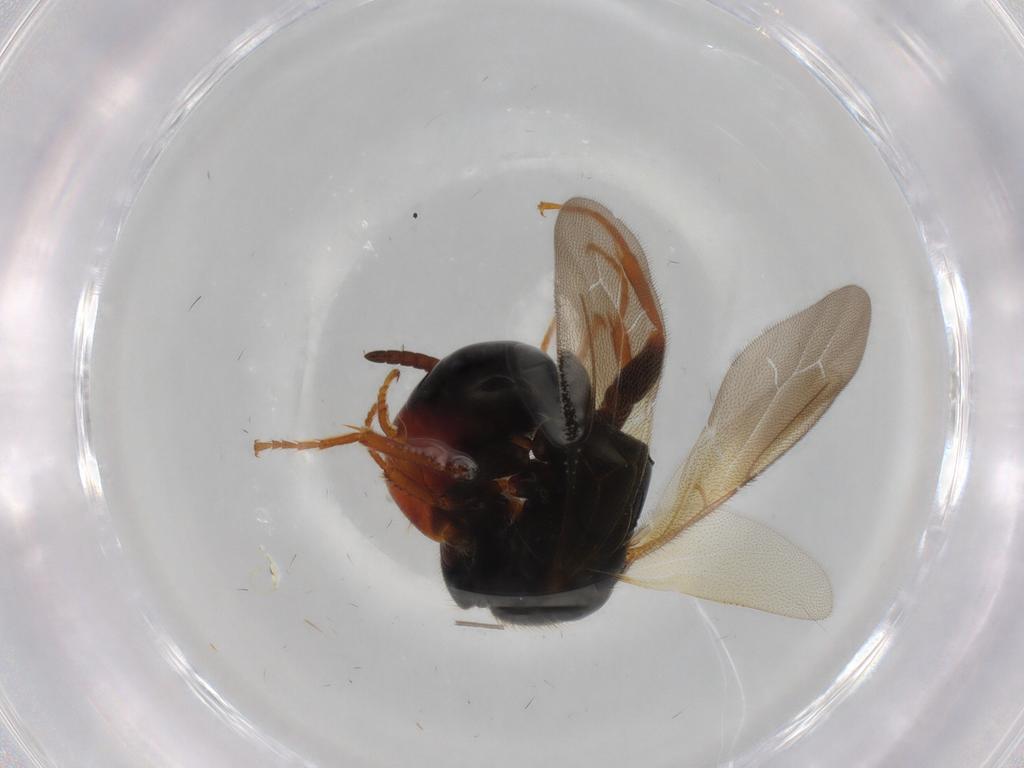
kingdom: Animalia
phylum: Arthropoda
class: Insecta
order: Hymenoptera
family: Bethylidae
